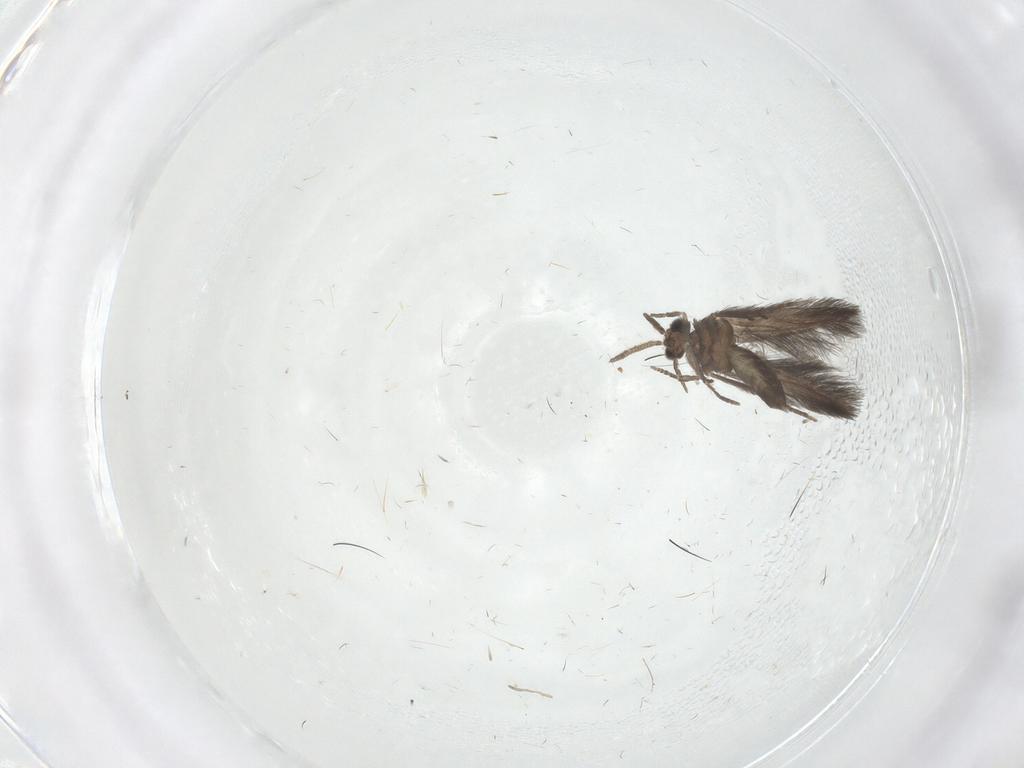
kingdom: Animalia
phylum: Arthropoda
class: Insecta
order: Trichoptera
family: Hydroptilidae
